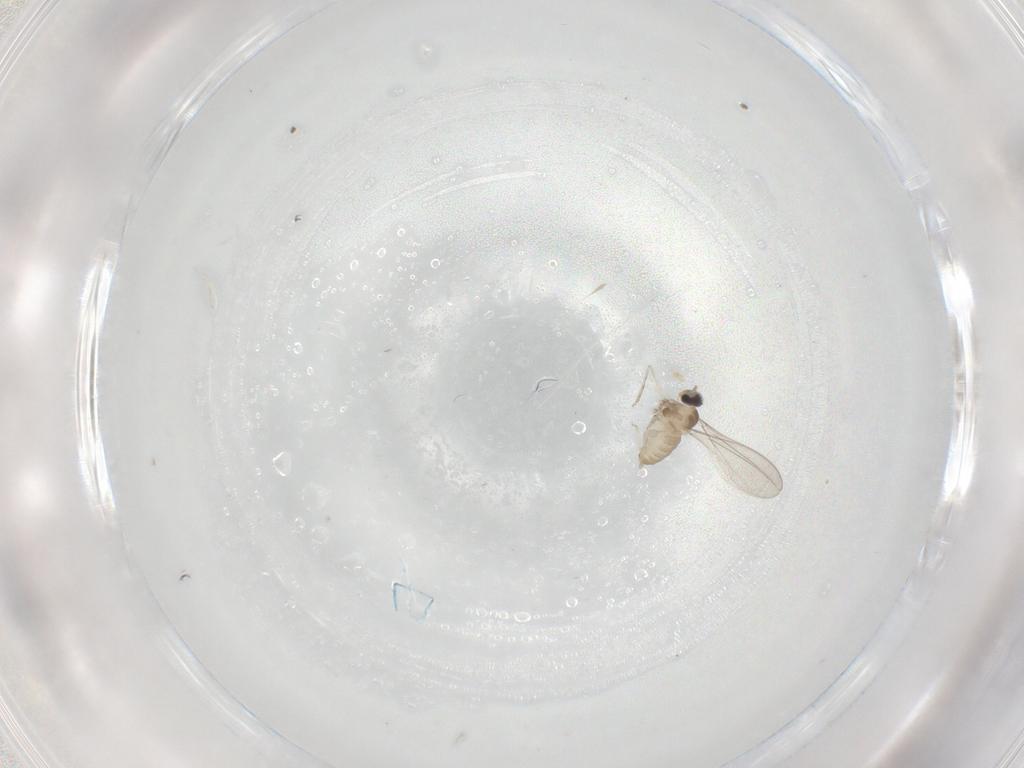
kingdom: Animalia
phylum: Arthropoda
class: Insecta
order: Diptera
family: Cecidomyiidae
